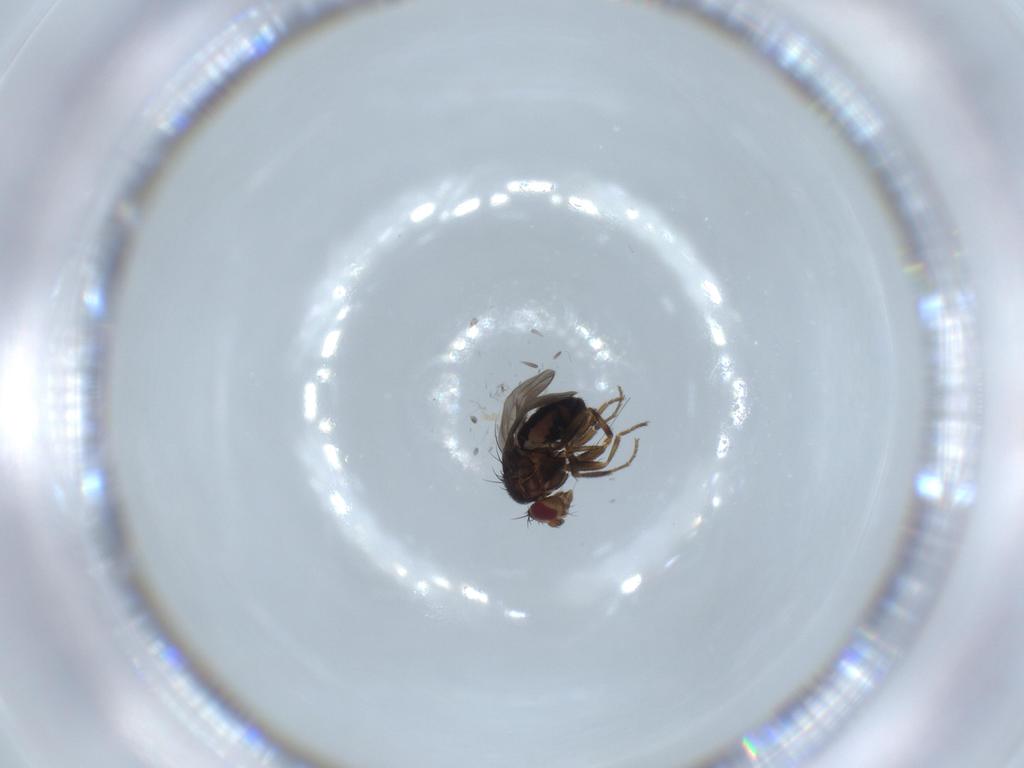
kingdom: Animalia
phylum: Arthropoda
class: Insecta
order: Diptera
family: Sphaeroceridae
